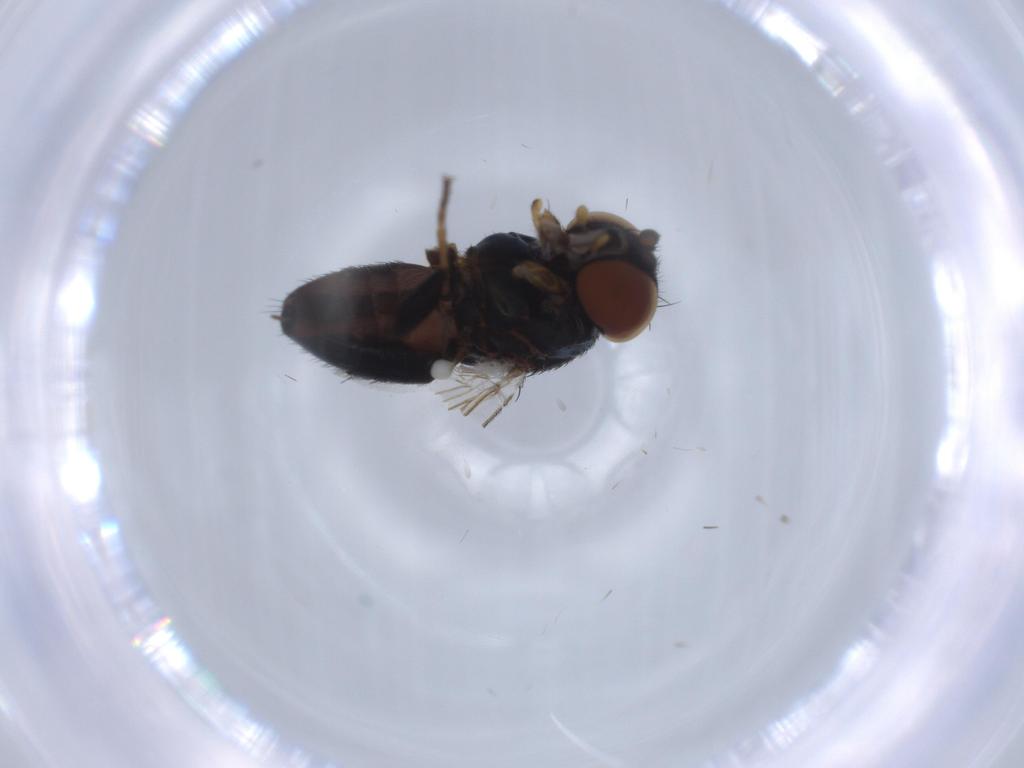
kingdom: Animalia
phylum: Arthropoda
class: Insecta
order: Diptera
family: Milichiidae
